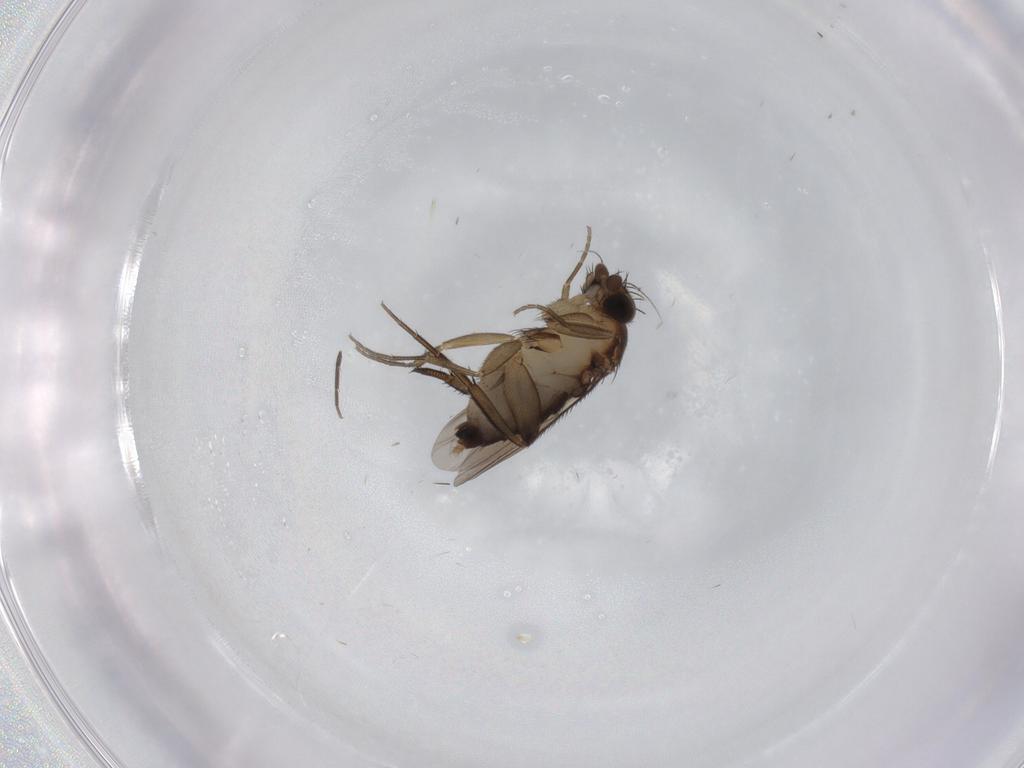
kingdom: Animalia
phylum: Arthropoda
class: Insecta
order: Diptera
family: Phoridae
